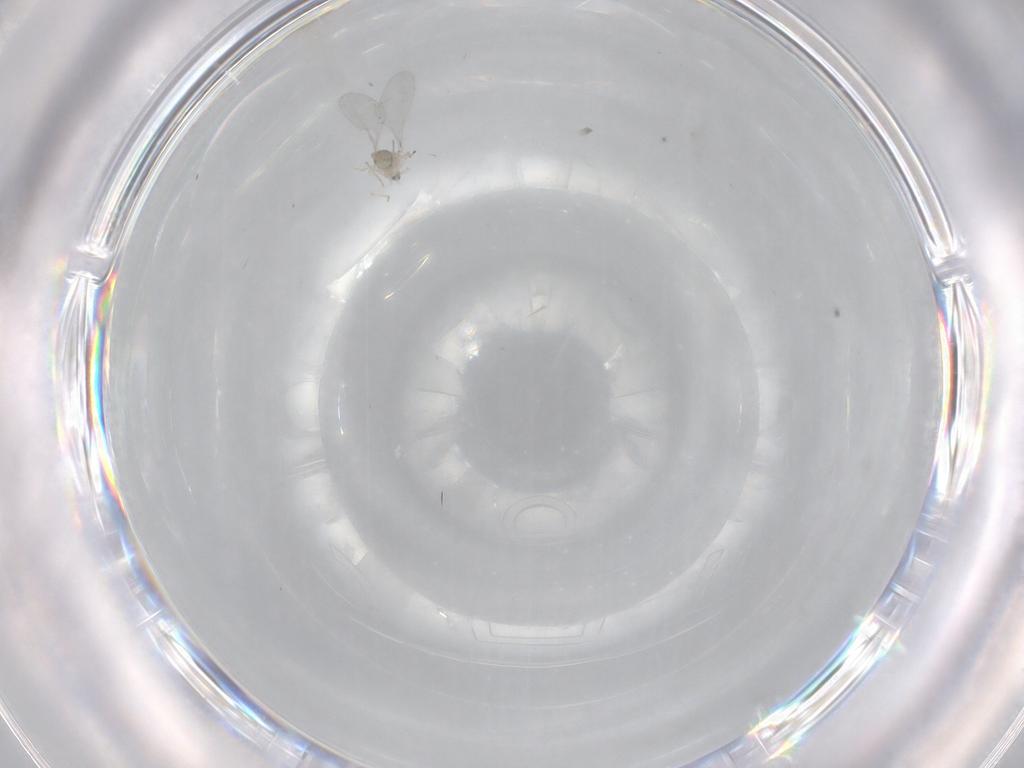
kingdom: Animalia
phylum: Arthropoda
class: Insecta
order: Diptera
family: Cecidomyiidae
